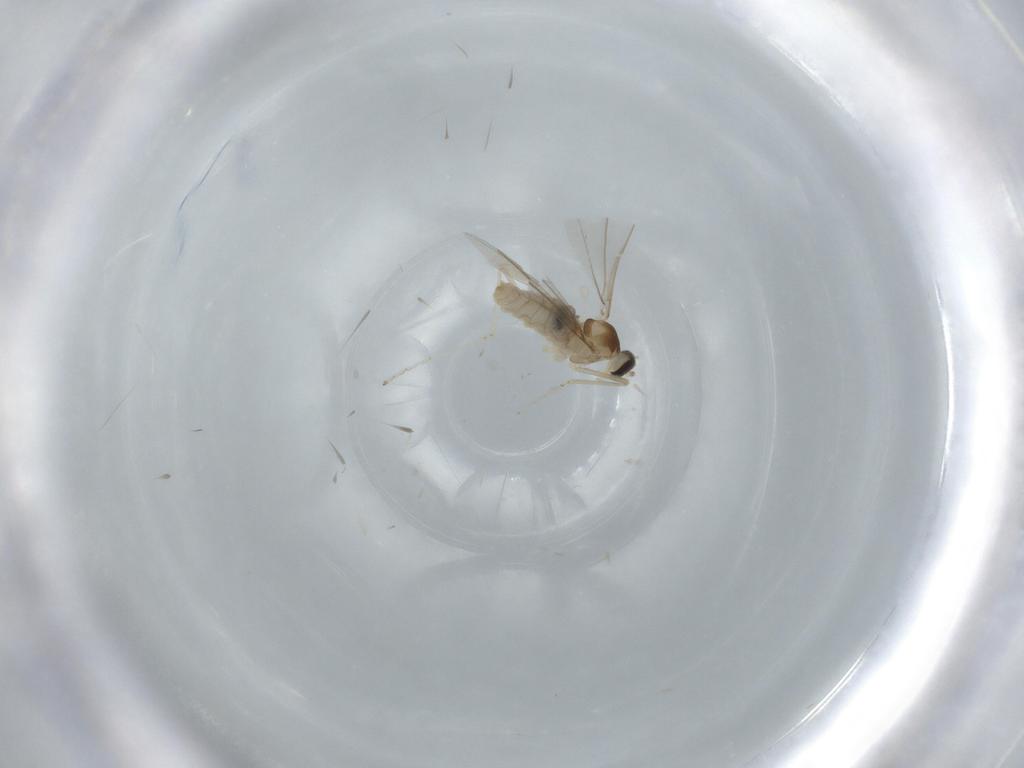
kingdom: Animalia
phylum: Arthropoda
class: Insecta
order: Diptera
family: Cecidomyiidae
